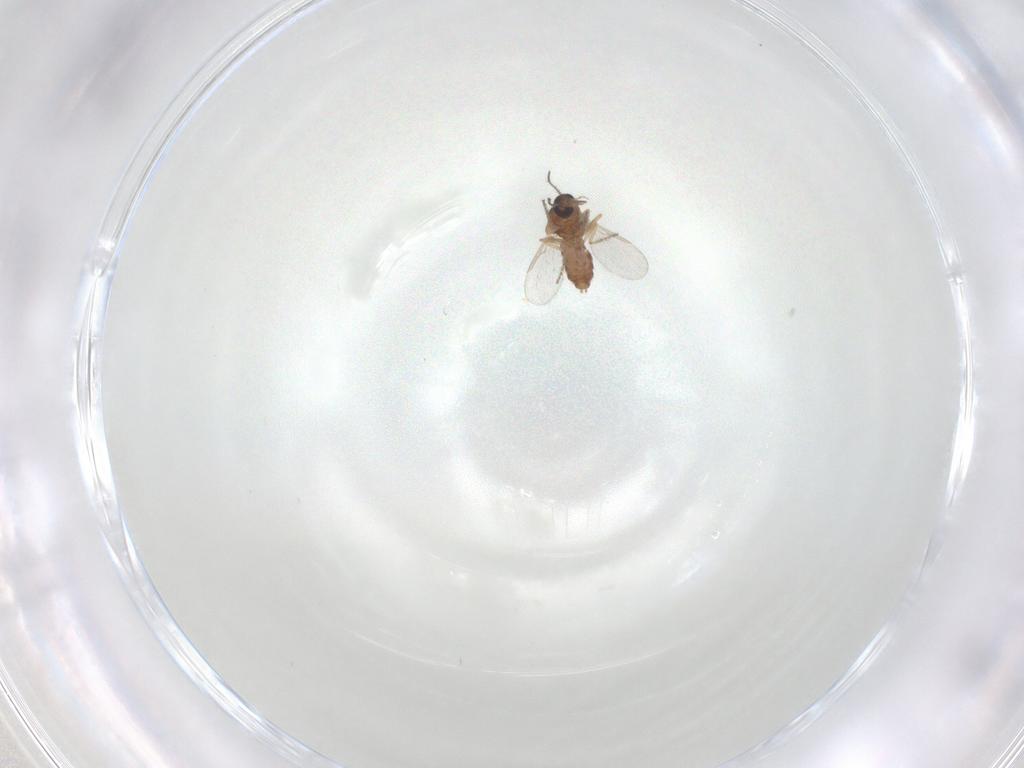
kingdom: Animalia
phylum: Arthropoda
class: Insecta
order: Diptera
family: Ceratopogonidae
